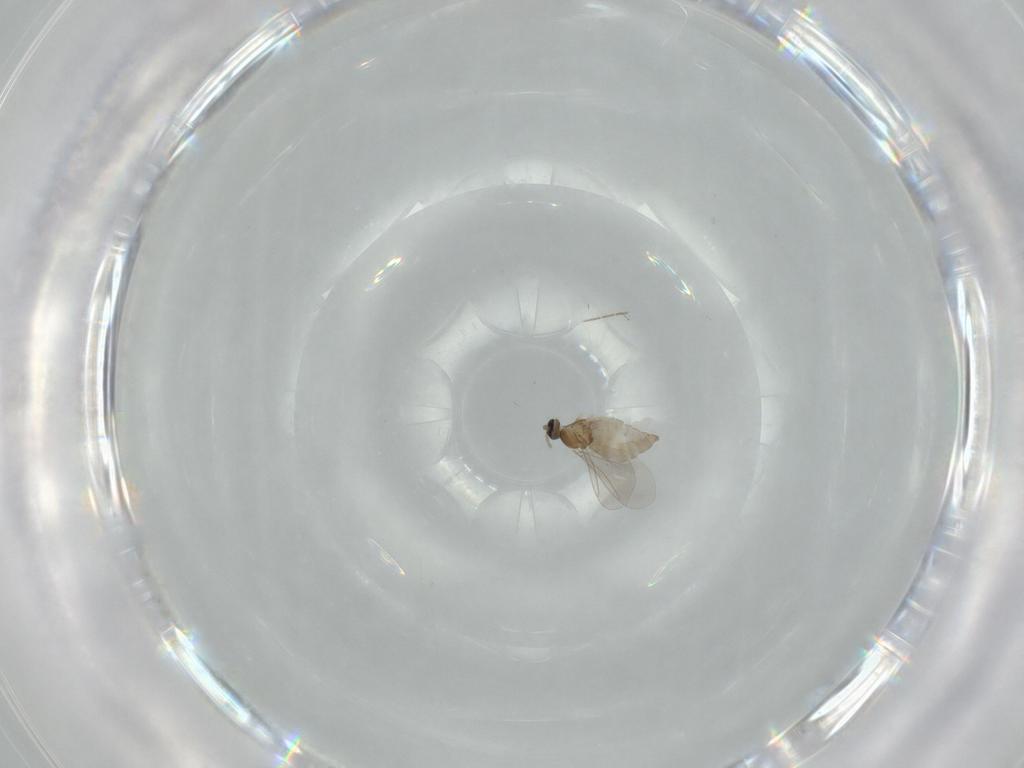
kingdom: Animalia
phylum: Arthropoda
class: Insecta
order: Diptera
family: Cecidomyiidae
